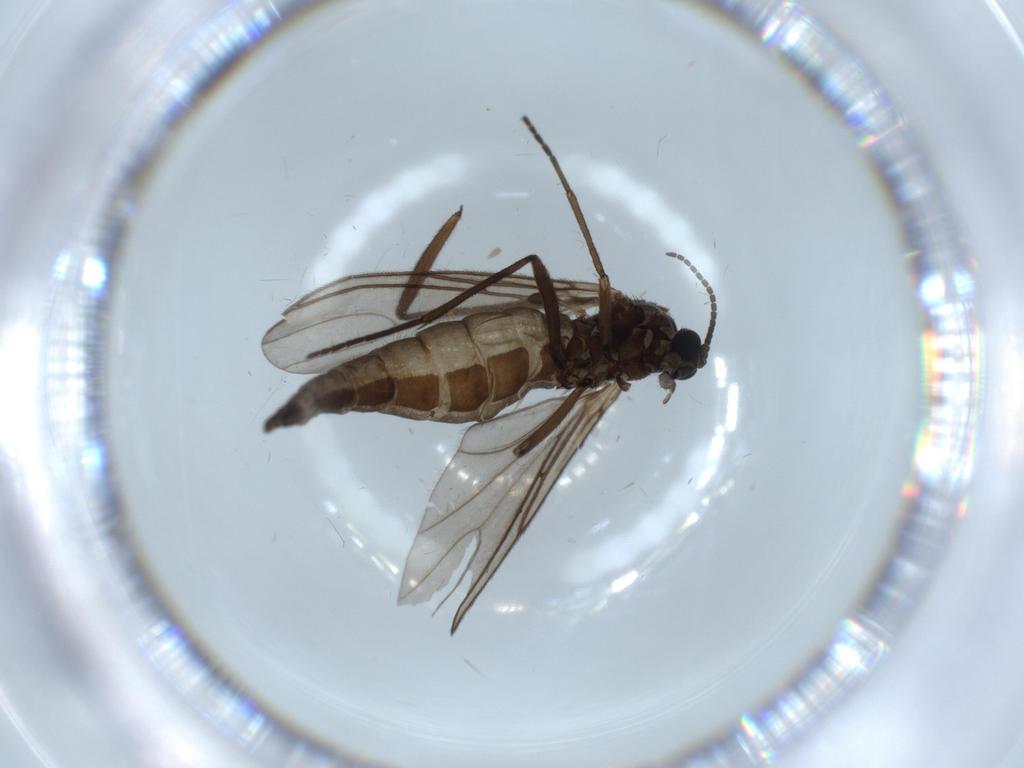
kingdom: Animalia
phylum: Arthropoda
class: Insecta
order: Diptera
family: Sciaridae
